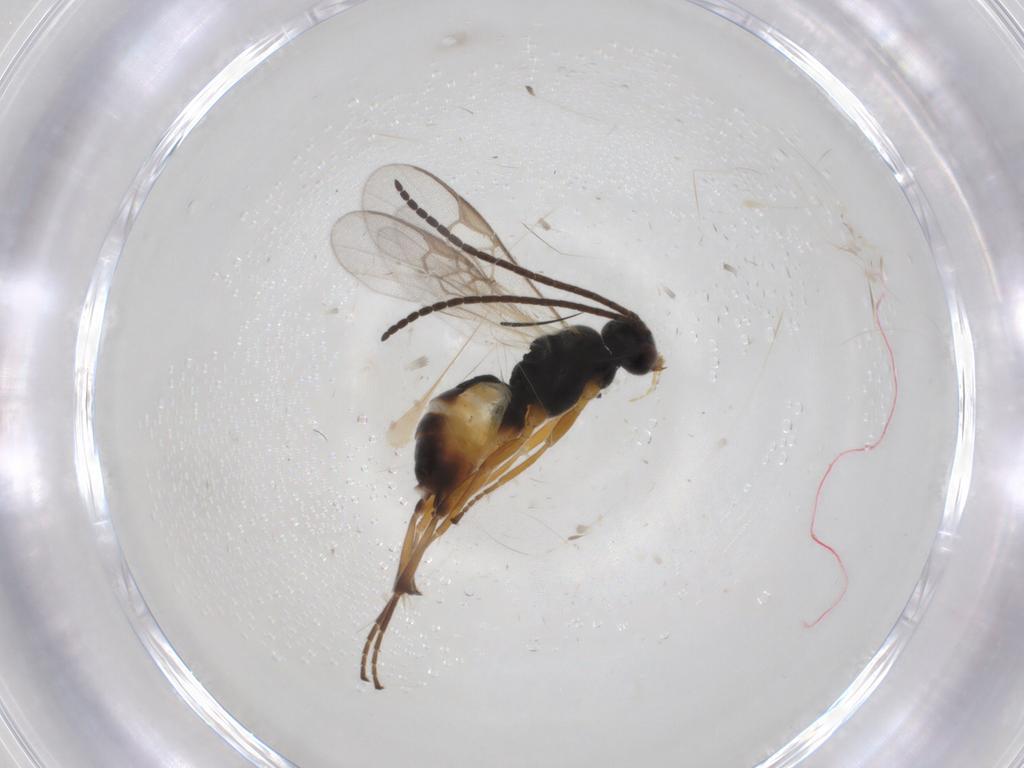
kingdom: Animalia
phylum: Arthropoda
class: Insecta
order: Hymenoptera
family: Braconidae
